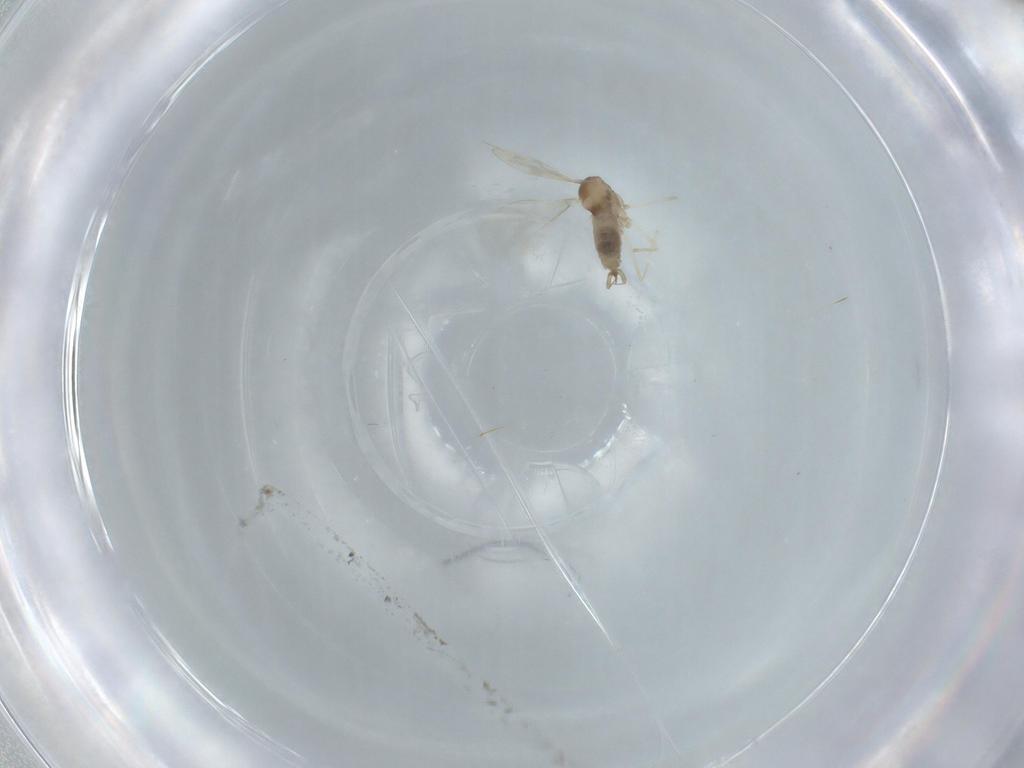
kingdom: Animalia
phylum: Arthropoda
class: Insecta
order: Diptera
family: Cecidomyiidae
